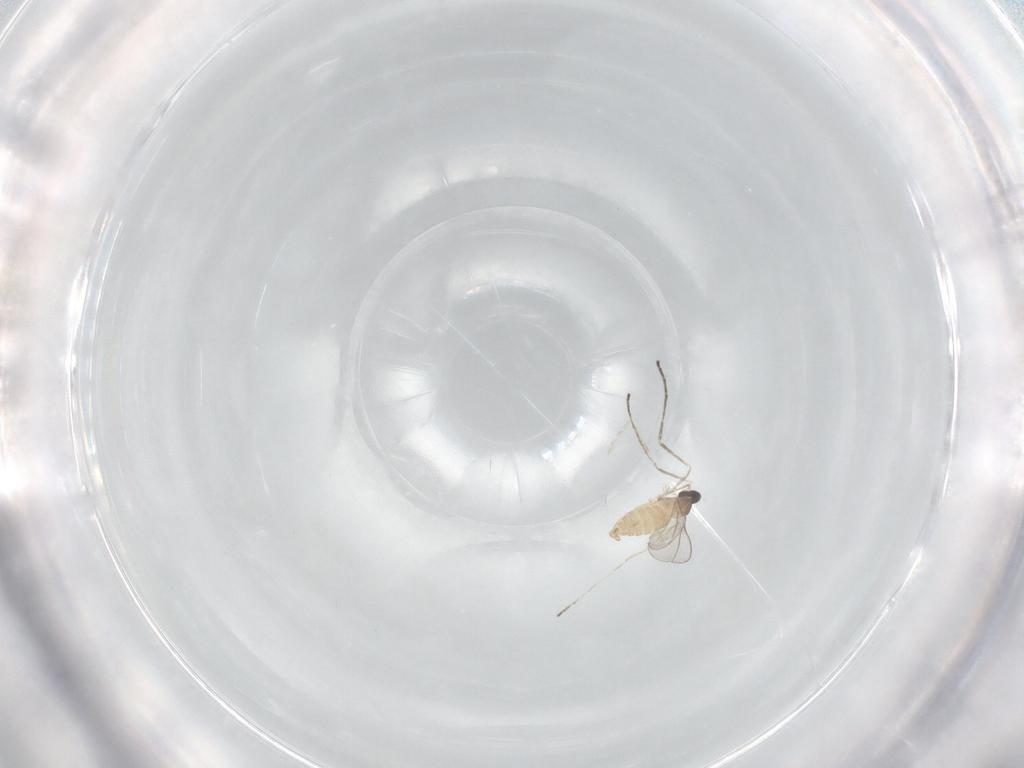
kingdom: Animalia
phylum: Arthropoda
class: Insecta
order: Diptera
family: Cecidomyiidae
